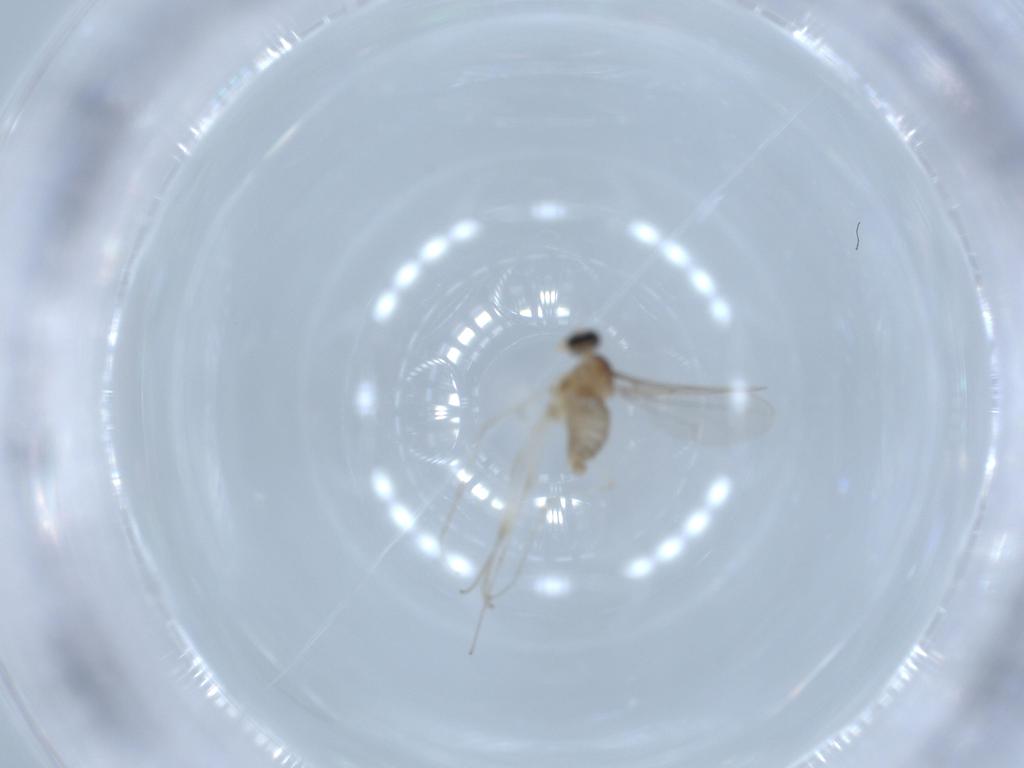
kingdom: Animalia
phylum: Arthropoda
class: Insecta
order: Diptera
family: Cecidomyiidae
